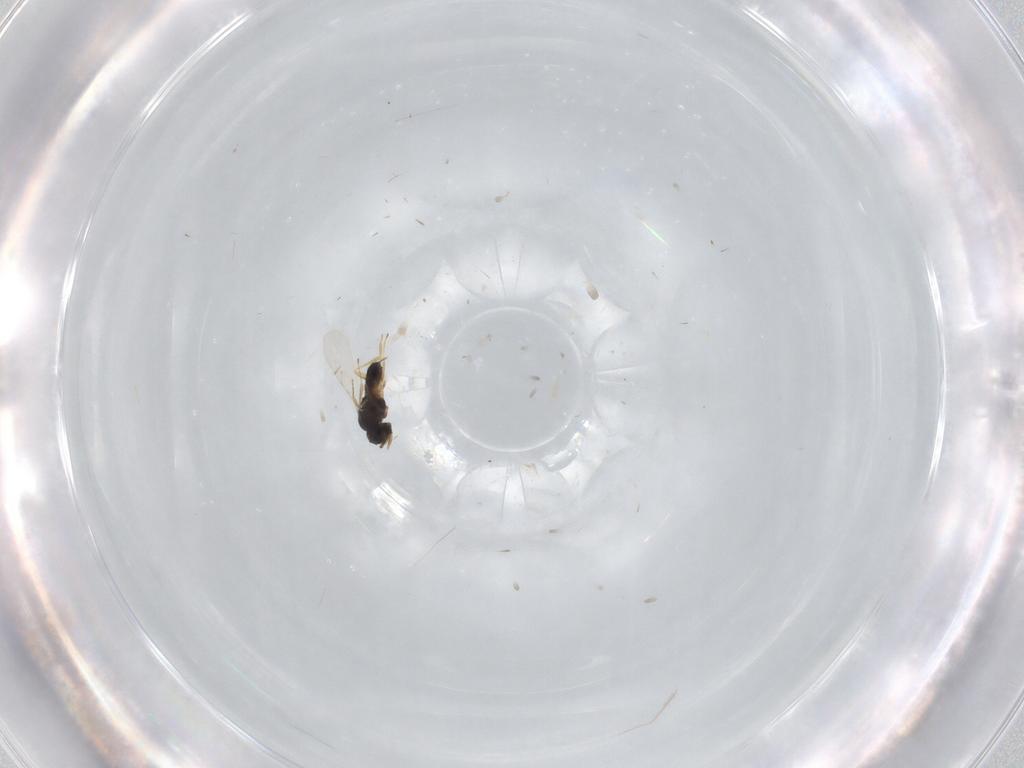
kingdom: Animalia
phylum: Arthropoda
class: Insecta
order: Hymenoptera
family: Scelionidae
